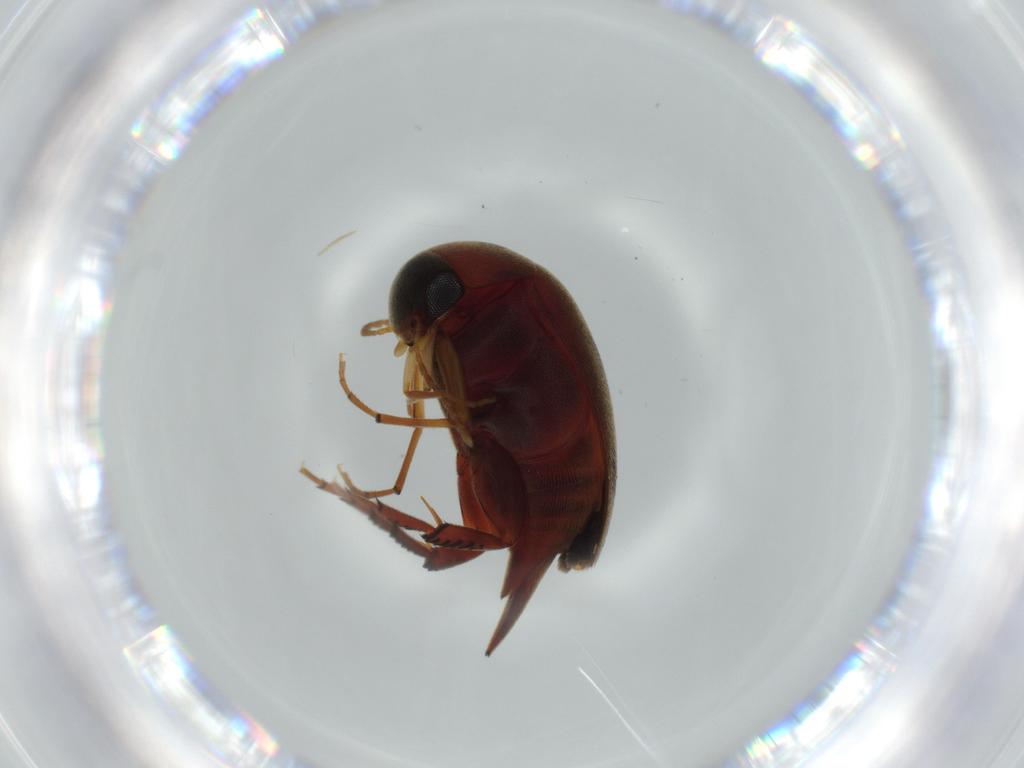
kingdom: Animalia
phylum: Arthropoda
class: Insecta
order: Coleoptera
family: Mordellidae
